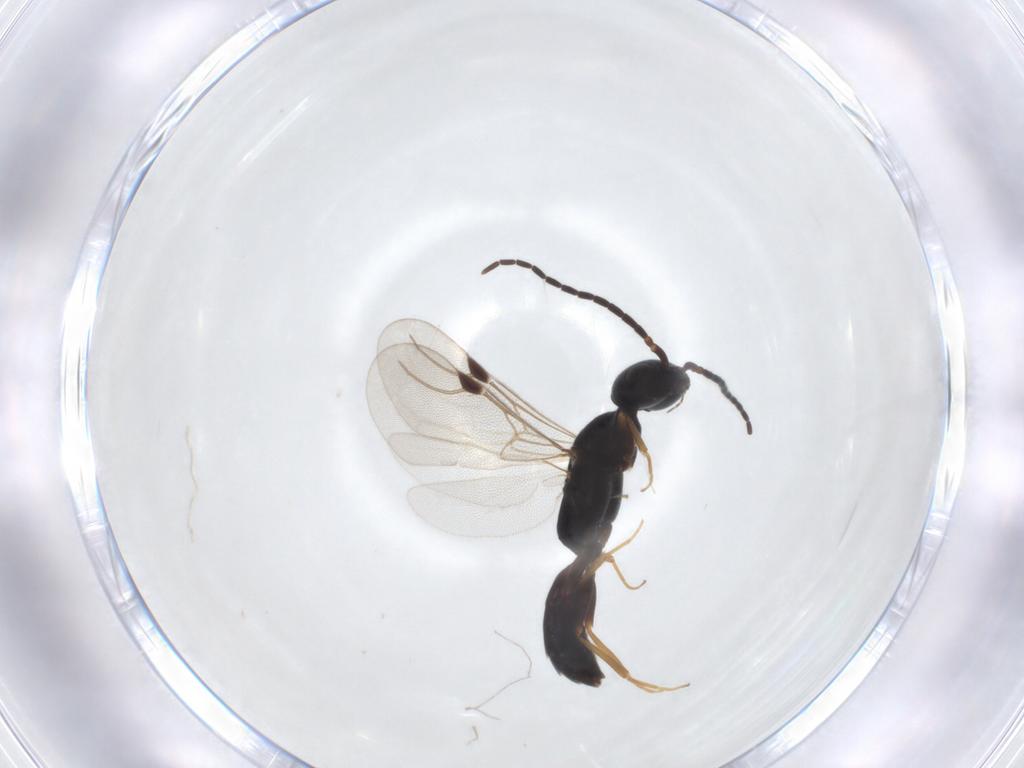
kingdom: Animalia
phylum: Arthropoda
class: Insecta
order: Hymenoptera
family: Bethylidae
